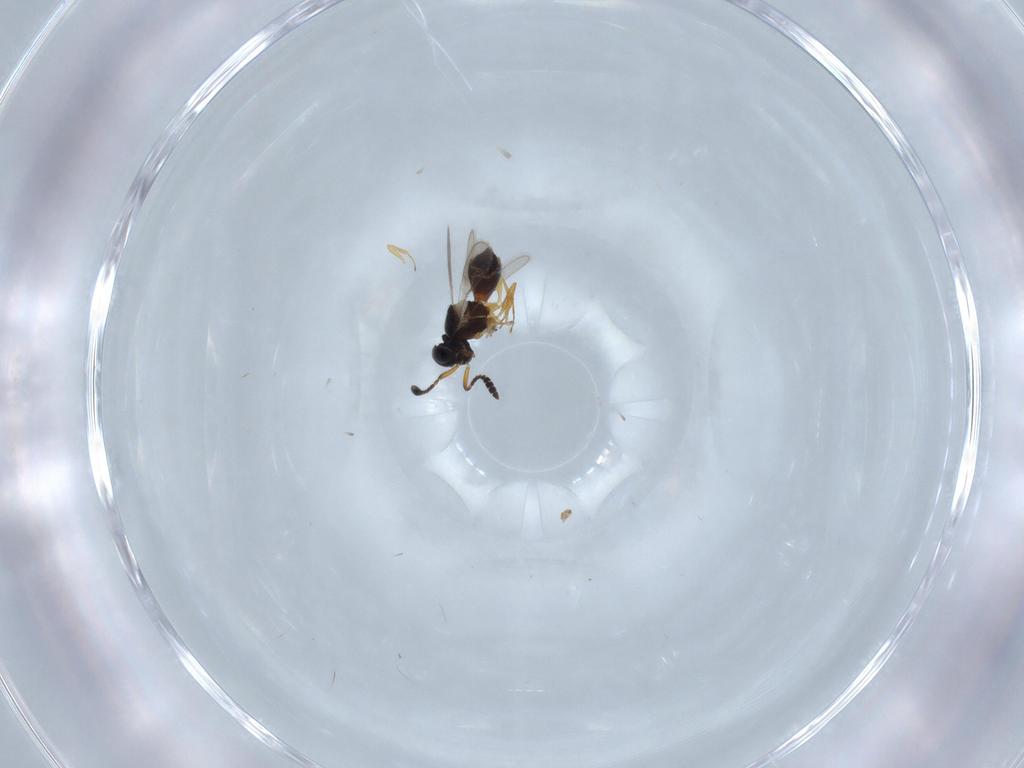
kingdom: Animalia
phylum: Arthropoda
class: Insecta
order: Hymenoptera
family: Scelionidae
